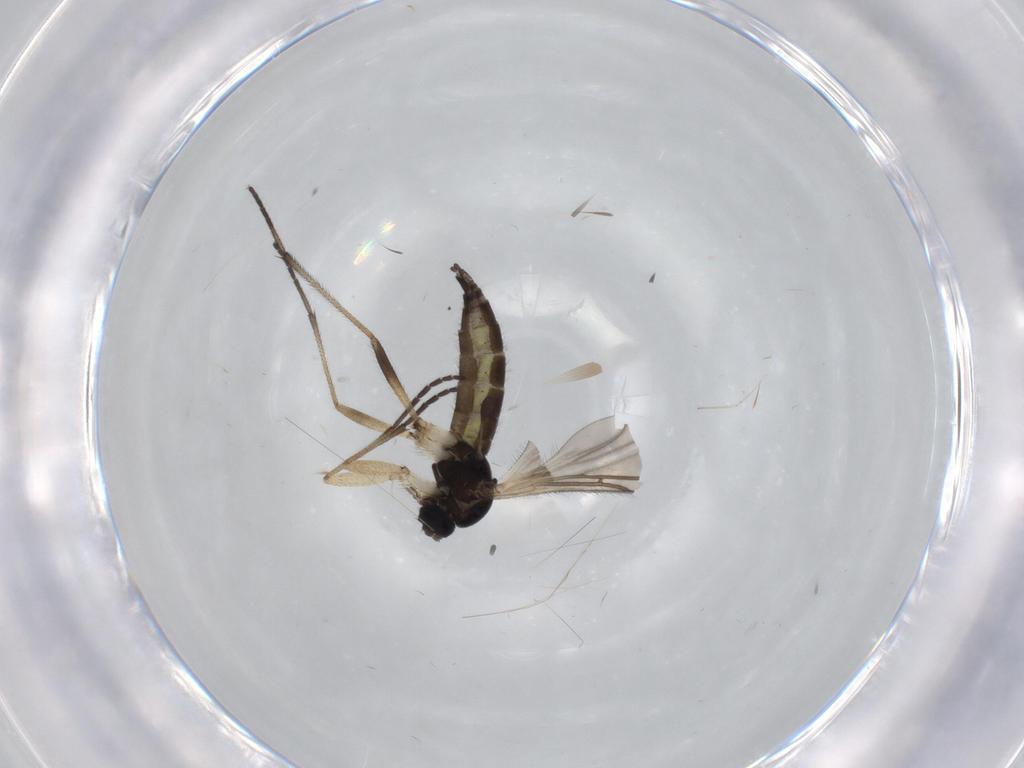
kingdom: Animalia
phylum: Arthropoda
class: Insecta
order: Diptera
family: Sciaridae
